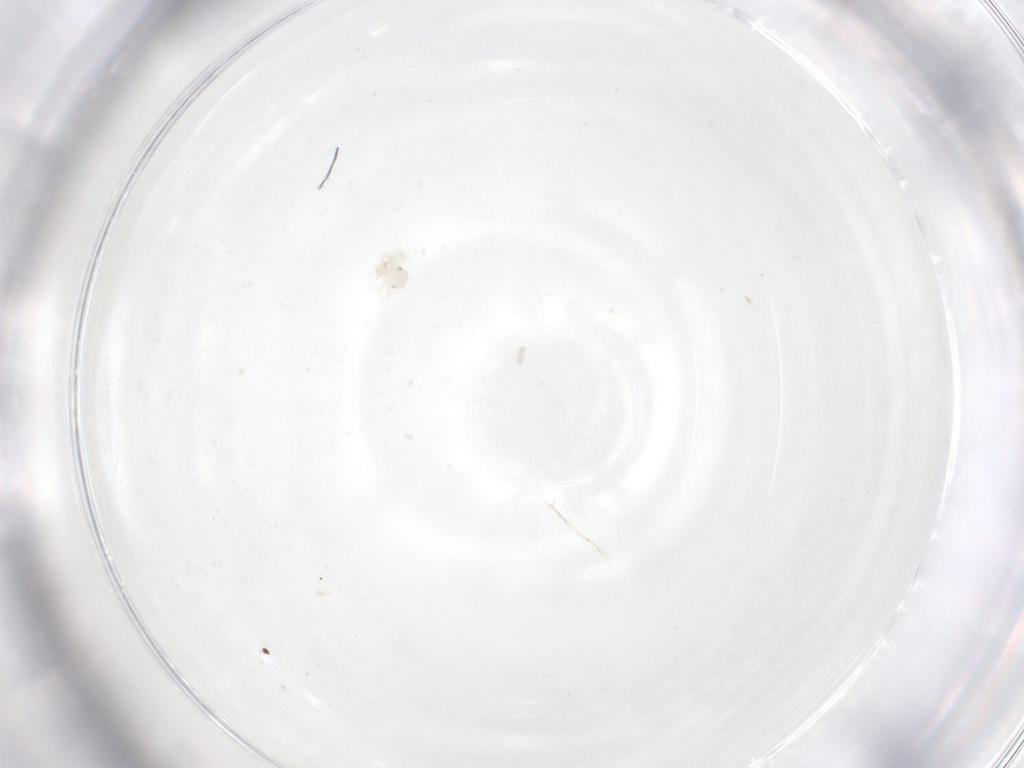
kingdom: Animalia
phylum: Arthropoda
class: Arachnida
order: Trombidiformes
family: Anystidae
